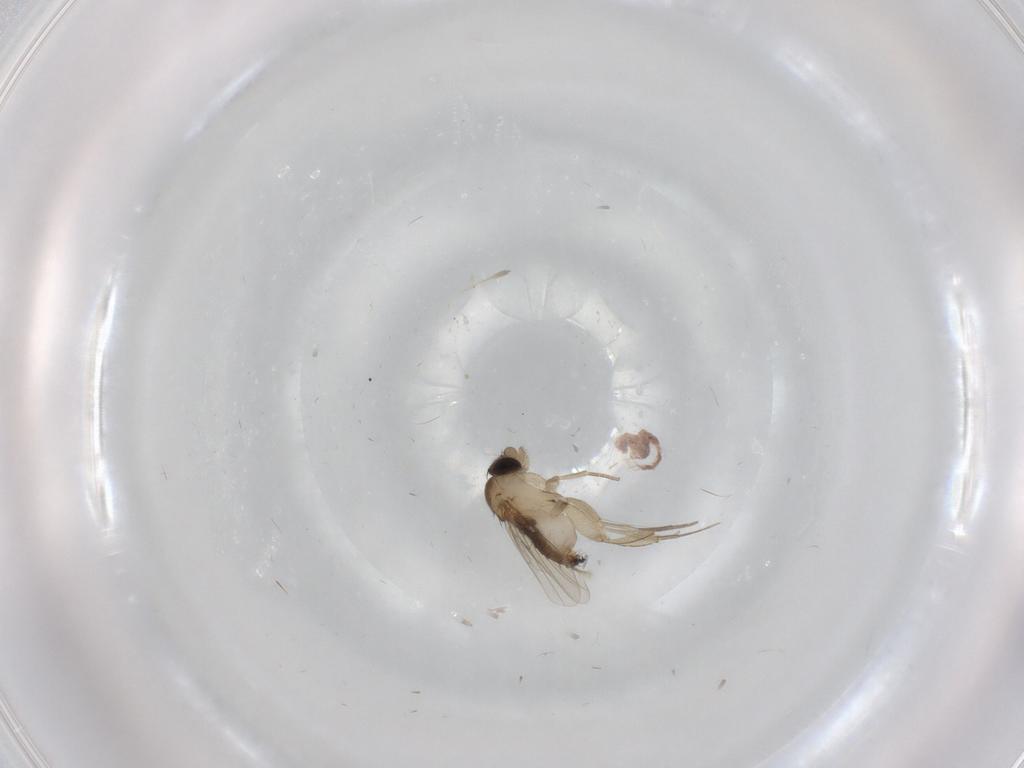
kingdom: Animalia
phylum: Arthropoda
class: Insecta
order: Diptera
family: Phoridae
